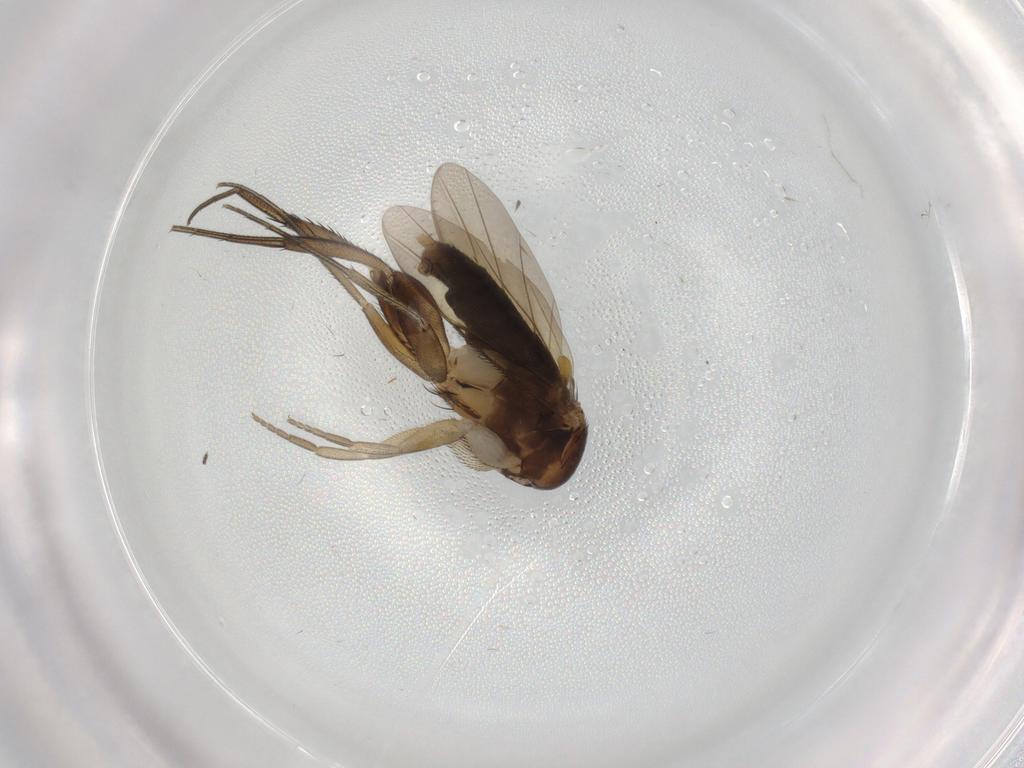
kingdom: Animalia
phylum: Arthropoda
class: Insecta
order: Diptera
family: Phoridae
